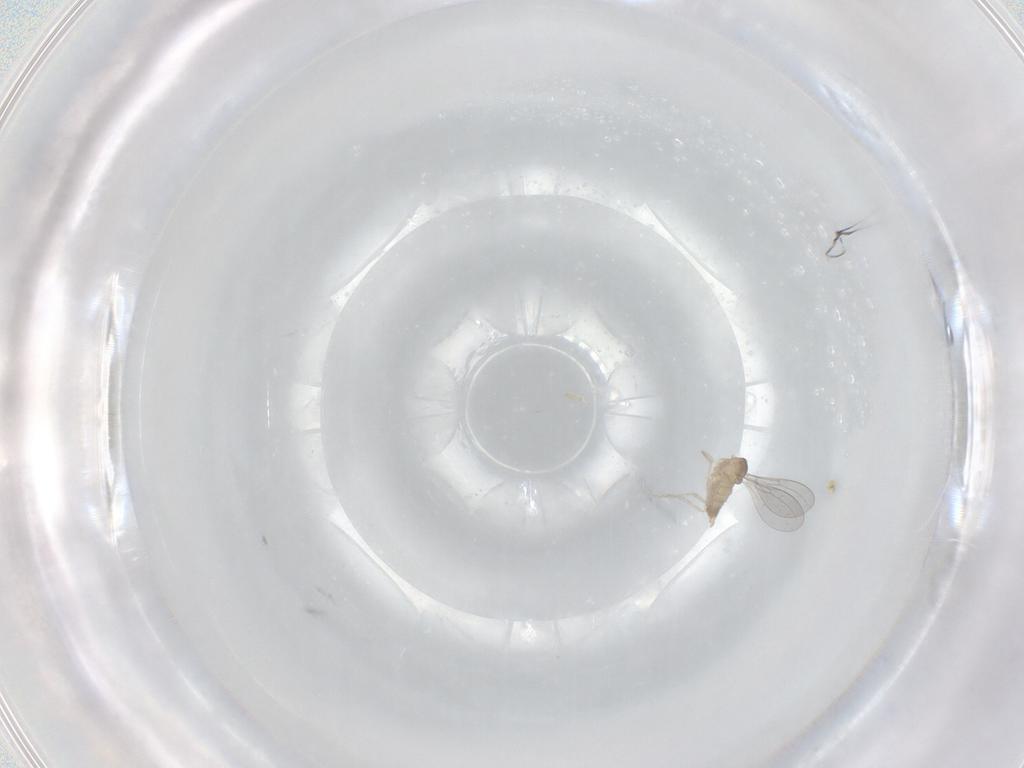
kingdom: Animalia
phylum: Arthropoda
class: Insecta
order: Diptera
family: Cecidomyiidae
